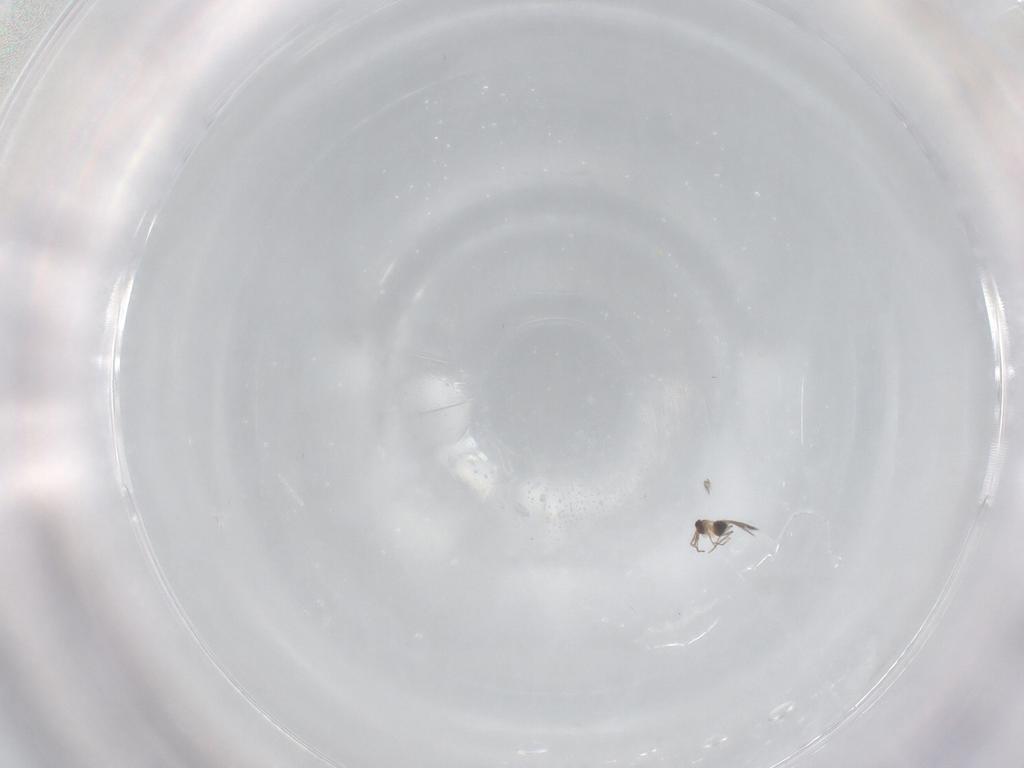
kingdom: Animalia
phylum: Arthropoda
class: Insecta
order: Hymenoptera
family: Mymaridae
